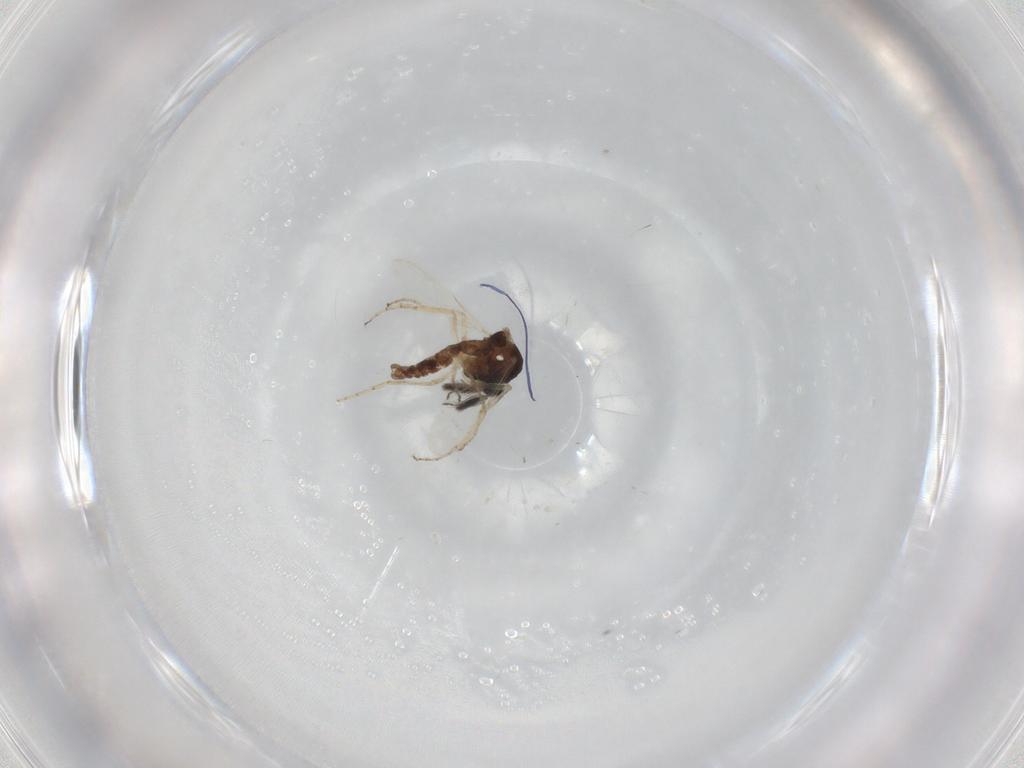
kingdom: Animalia
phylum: Arthropoda
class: Insecta
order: Diptera
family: Ceratopogonidae
